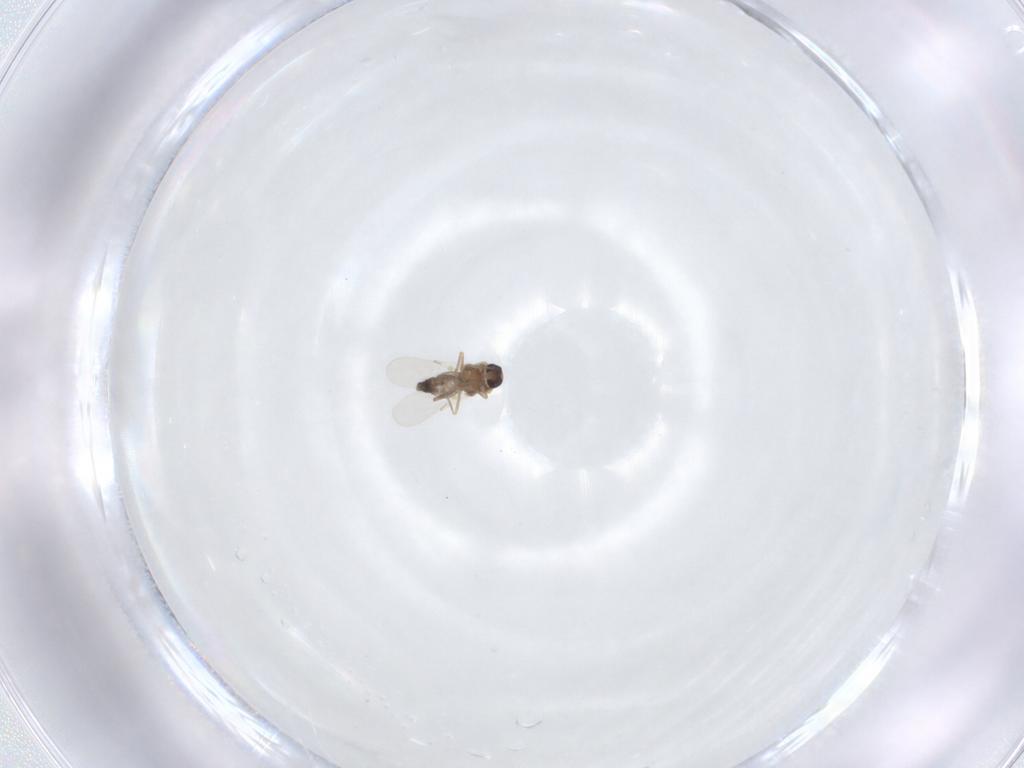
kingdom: Animalia
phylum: Arthropoda
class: Insecta
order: Diptera
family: Ceratopogonidae
